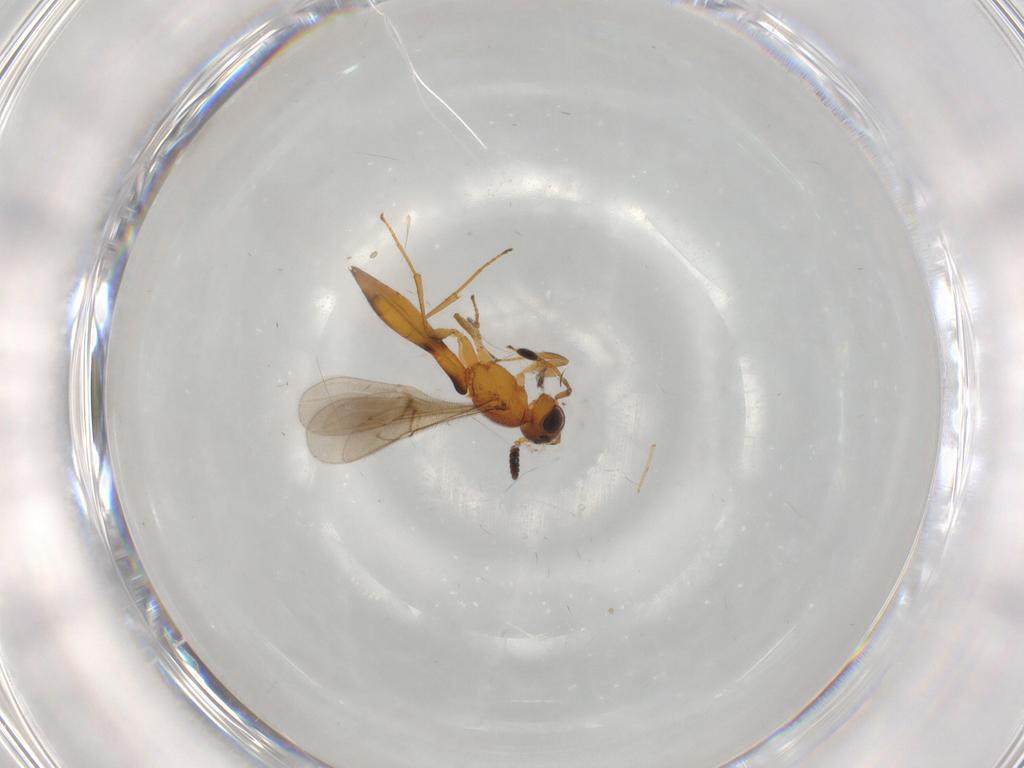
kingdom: Animalia
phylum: Arthropoda
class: Insecta
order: Hymenoptera
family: Scelionidae
